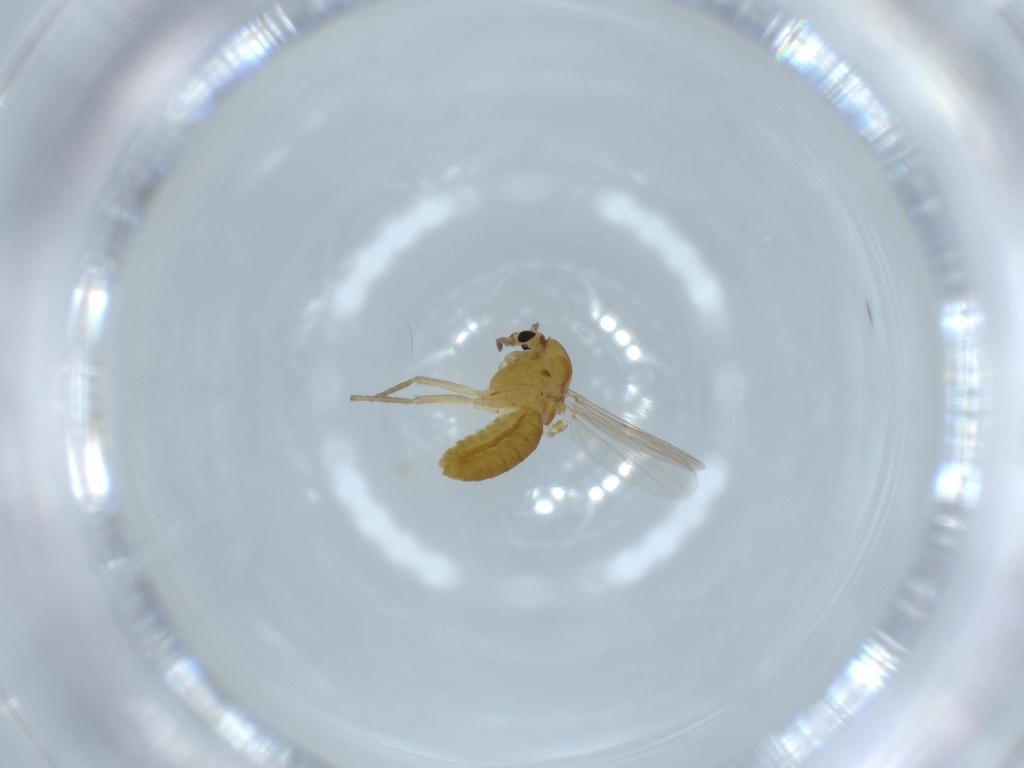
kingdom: Animalia
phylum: Arthropoda
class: Insecta
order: Diptera
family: Chironomidae
